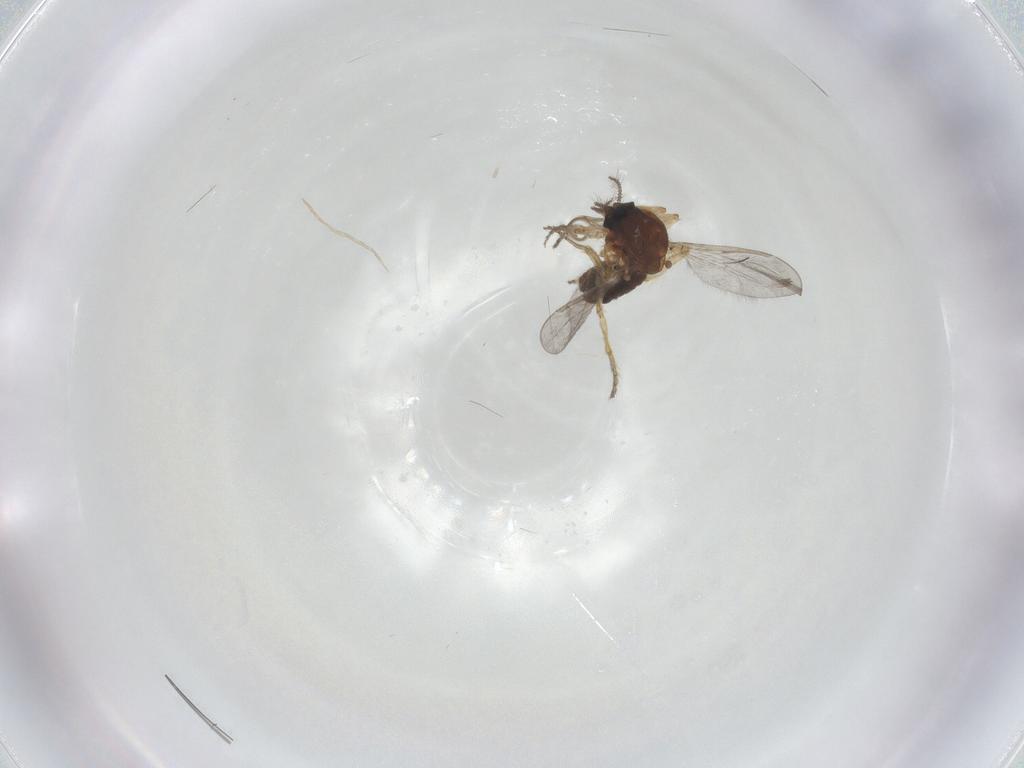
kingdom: Animalia
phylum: Arthropoda
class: Insecta
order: Diptera
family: Ceratopogonidae
